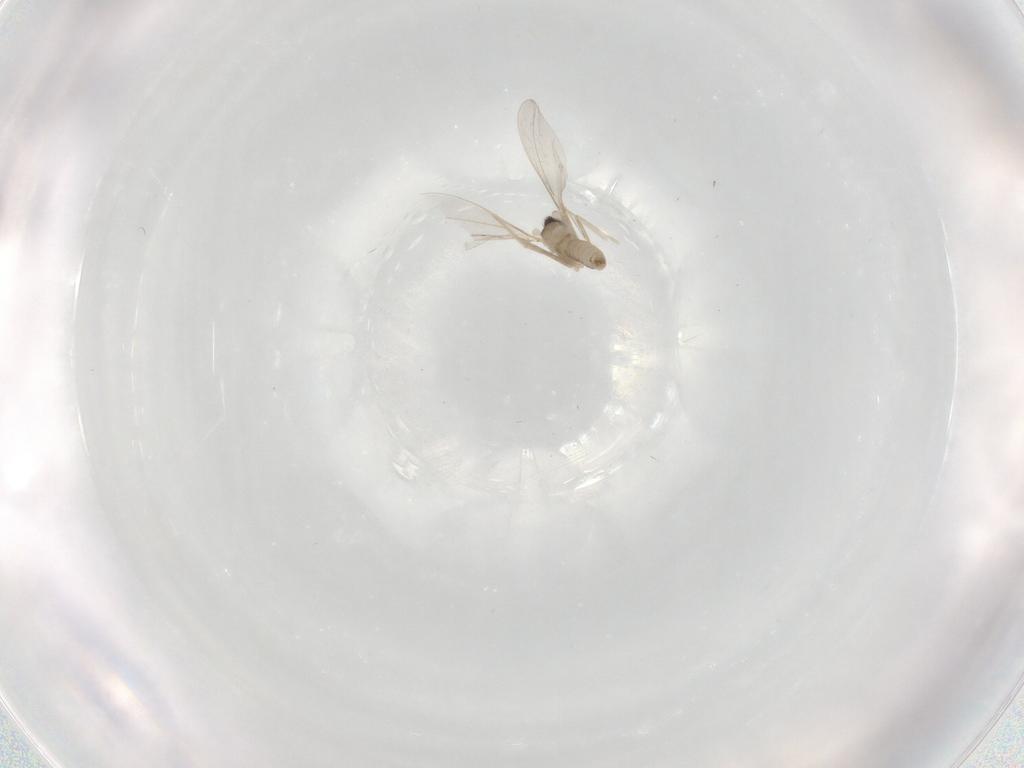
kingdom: Animalia
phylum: Arthropoda
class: Insecta
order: Diptera
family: Cecidomyiidae
